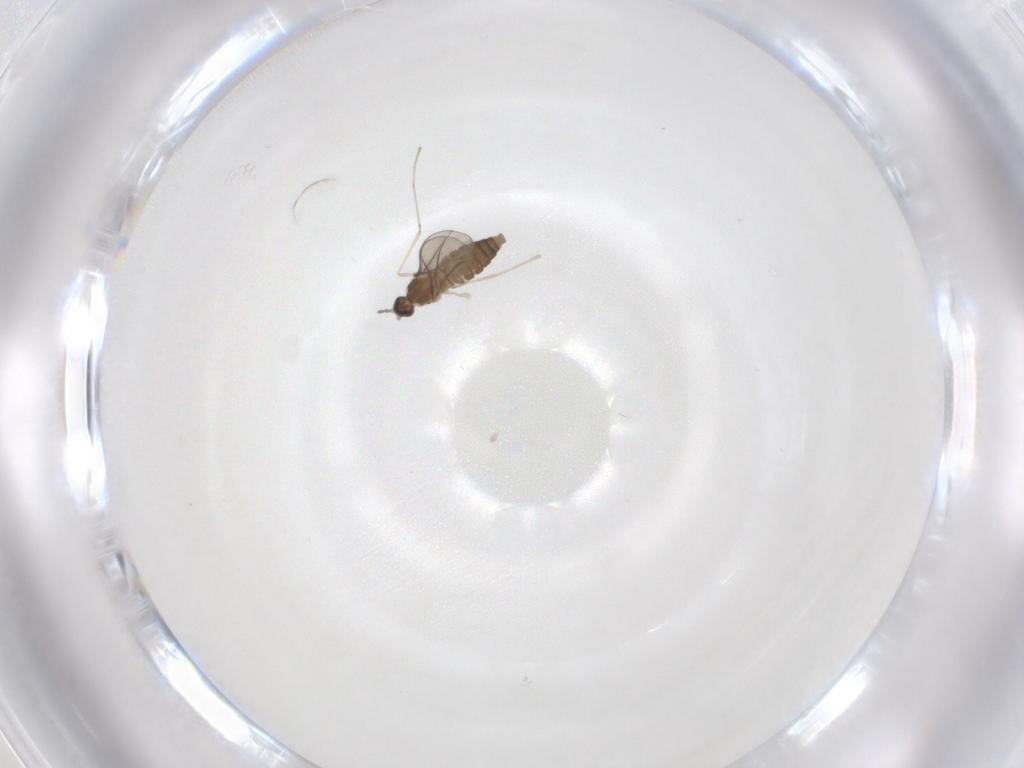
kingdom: Animalia
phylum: Arthropoda
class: Insecta
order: Diptera
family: Cecidomyiidae
